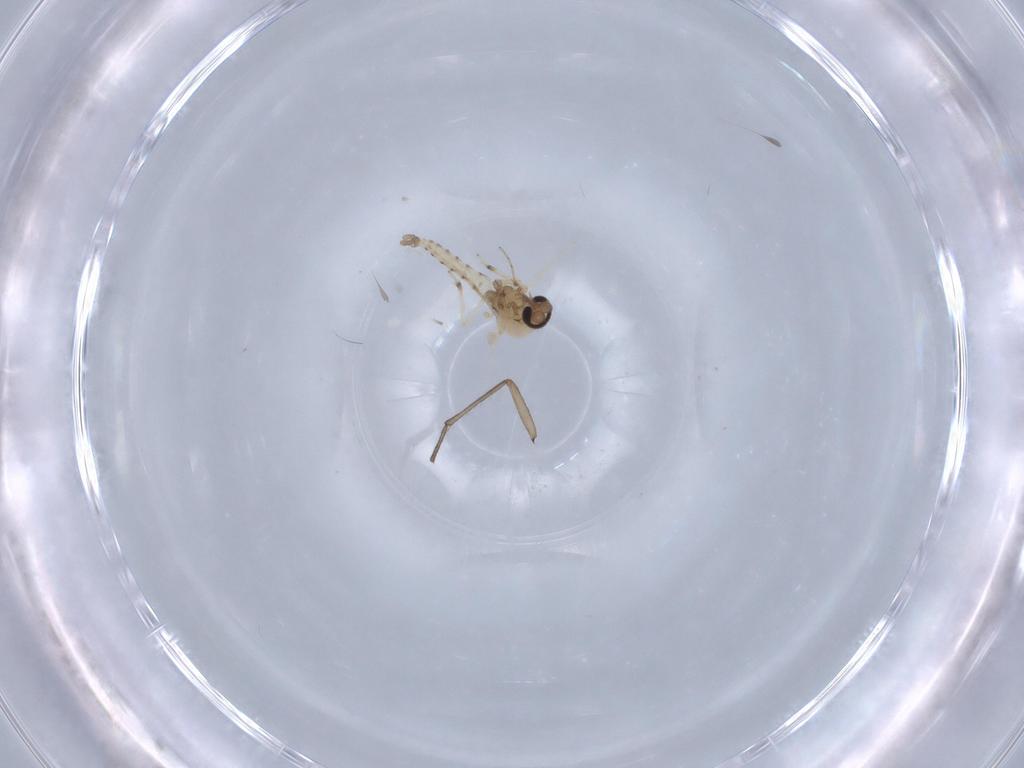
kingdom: Animalia
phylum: Arthropoda
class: Insecta
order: Diptera
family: Sciaridae
